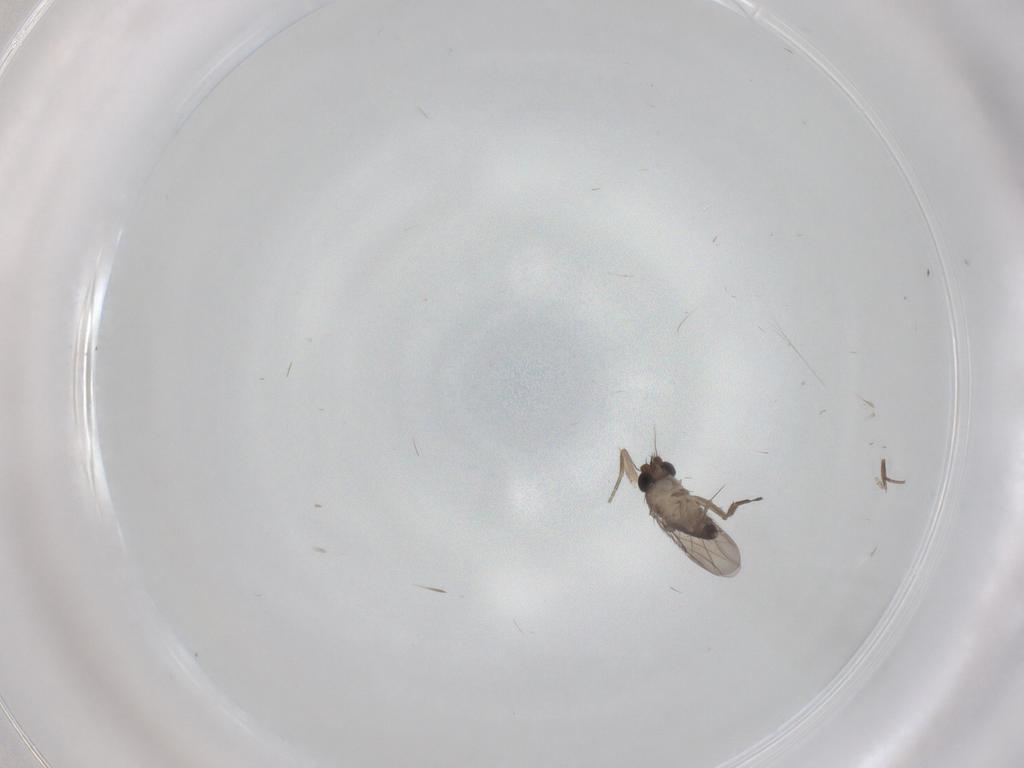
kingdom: Animalia
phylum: Arthropoda
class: Insecta
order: Diptera
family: Phoridae
